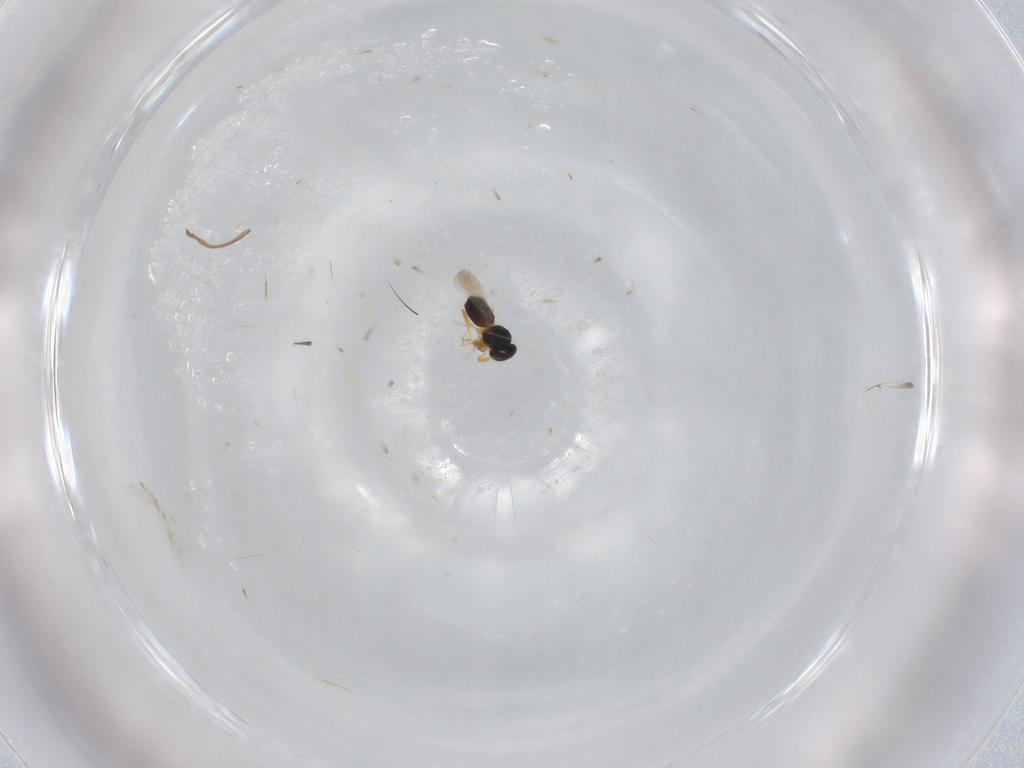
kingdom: Animalia
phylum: Arthropoda
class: Insecta
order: Hymenoptera
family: Platygastridae
